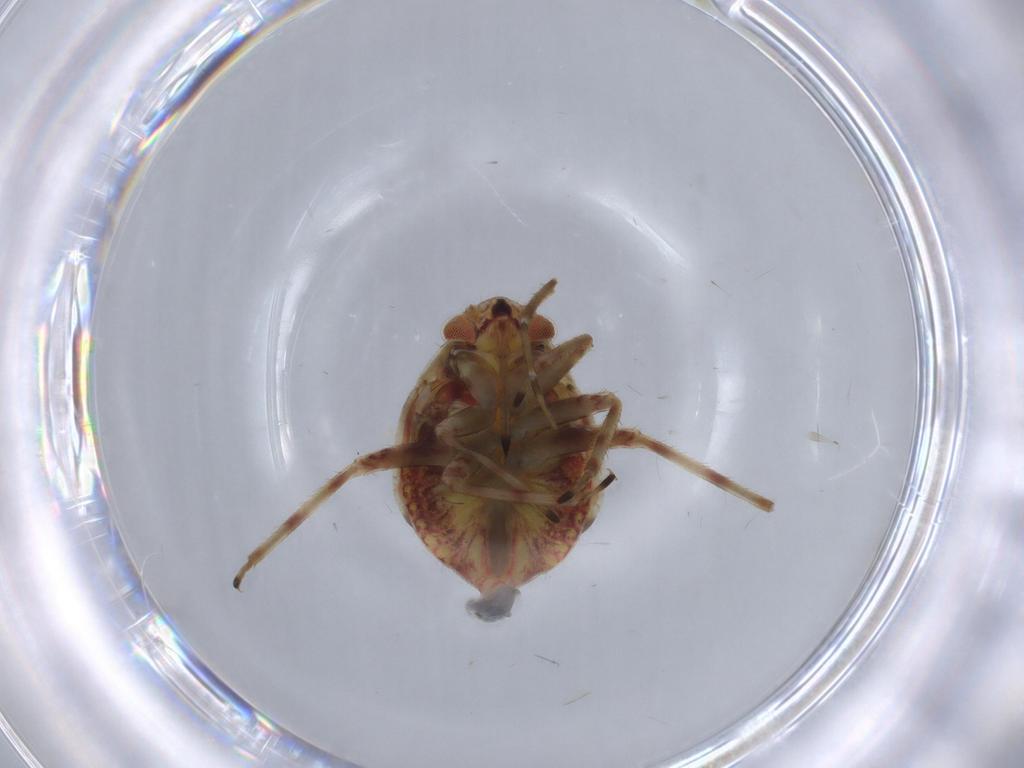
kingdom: Animalia
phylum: Arthropoda
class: Insecta
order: Hemiptera
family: Miridae
